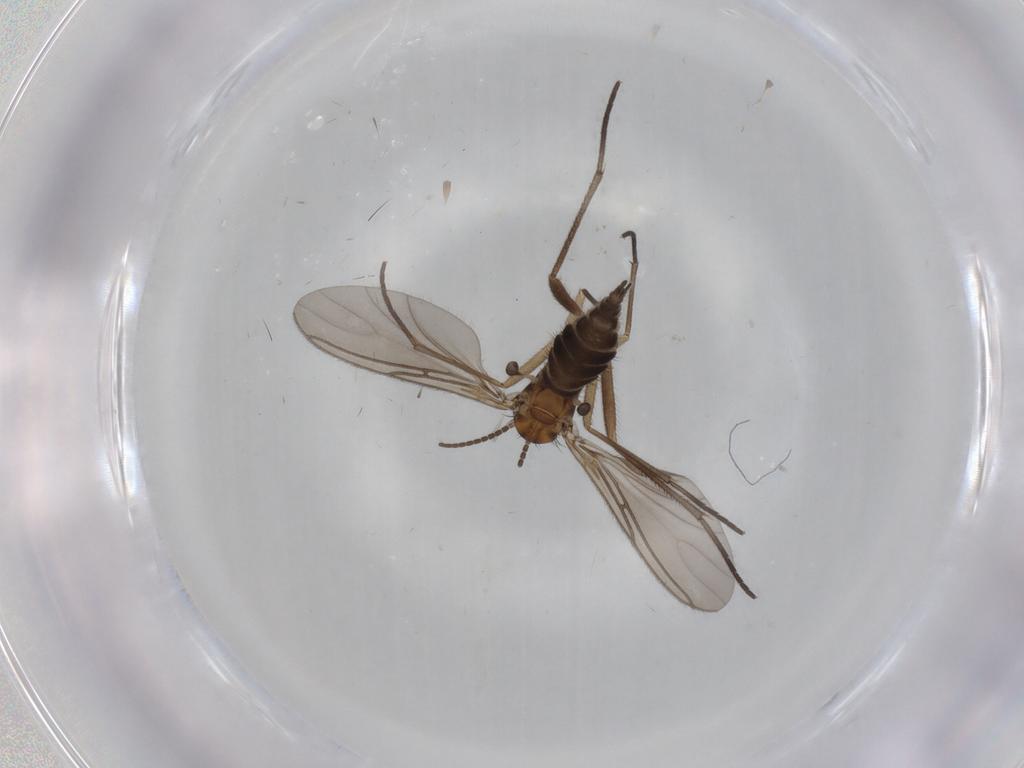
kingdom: Animalia
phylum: Arthropoda
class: Insecta
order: Diptera
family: Sciaridae
